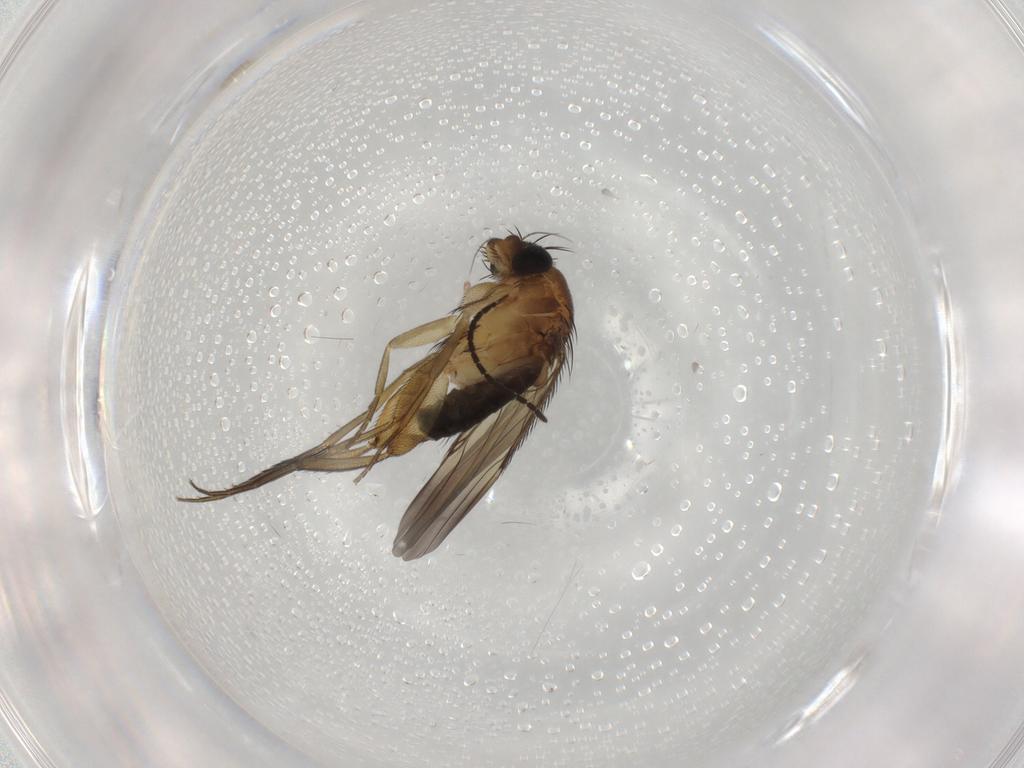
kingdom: Animalia
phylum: Arthropoda
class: Insecta
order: Diptera
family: Phoridae
